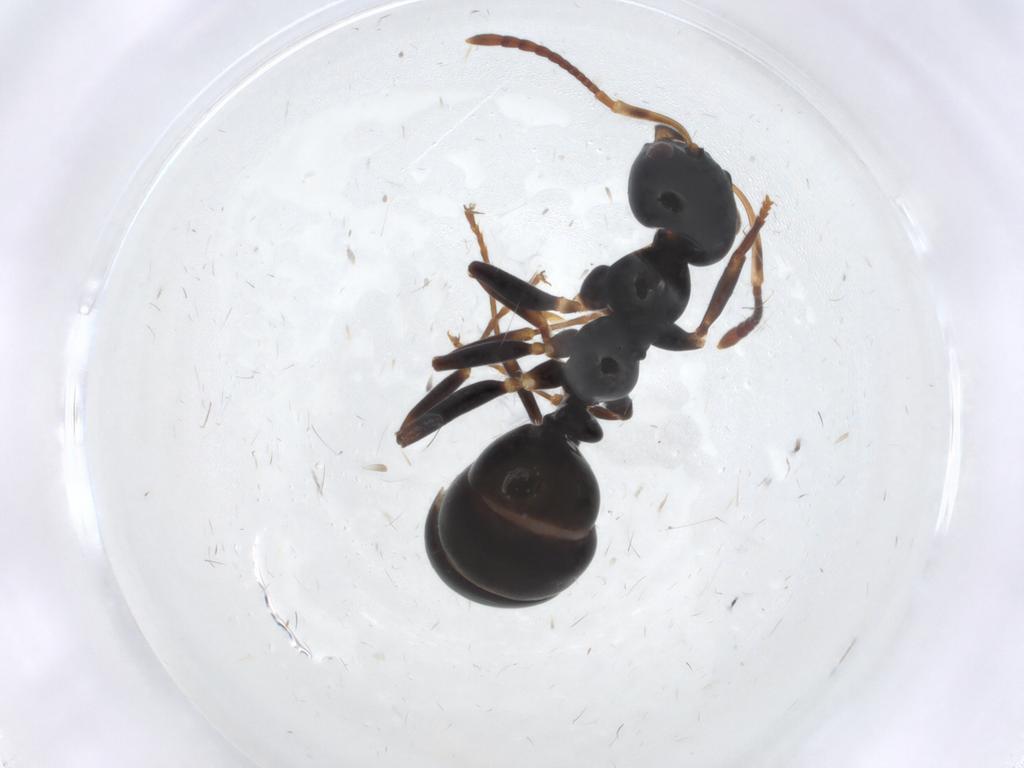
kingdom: Animalia
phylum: Arthropoda
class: Insecta
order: Hymenoptera
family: Formicidae
